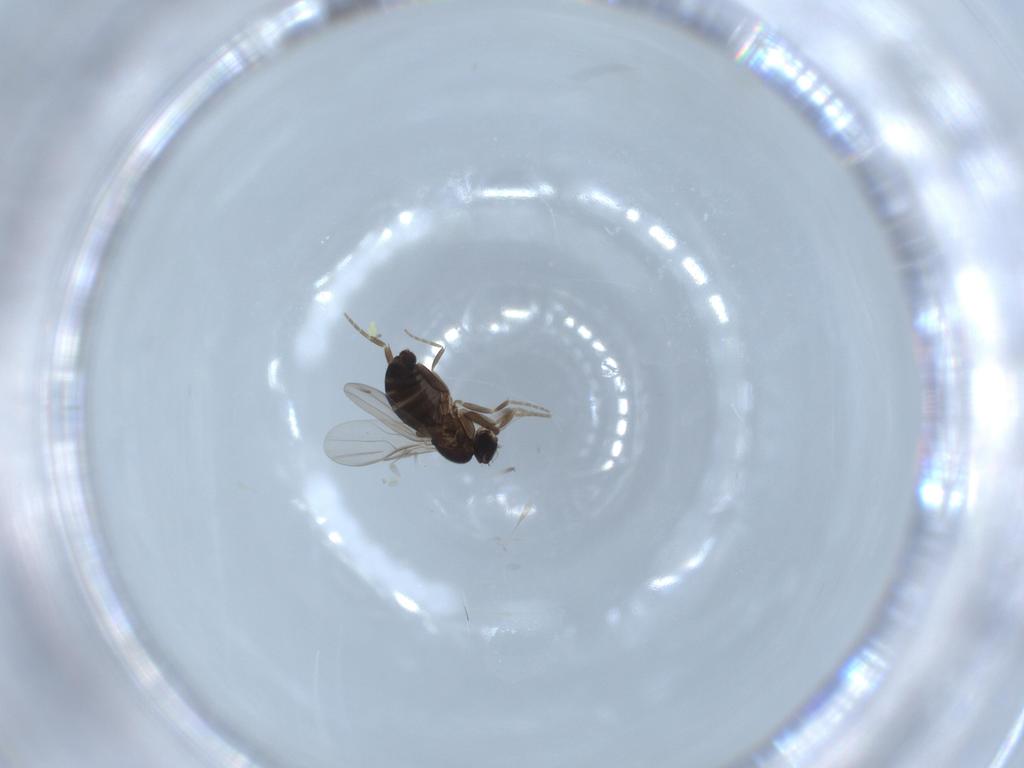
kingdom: Animalia
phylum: Arthropoda
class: Insecta
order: Diptera
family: Phoridae
